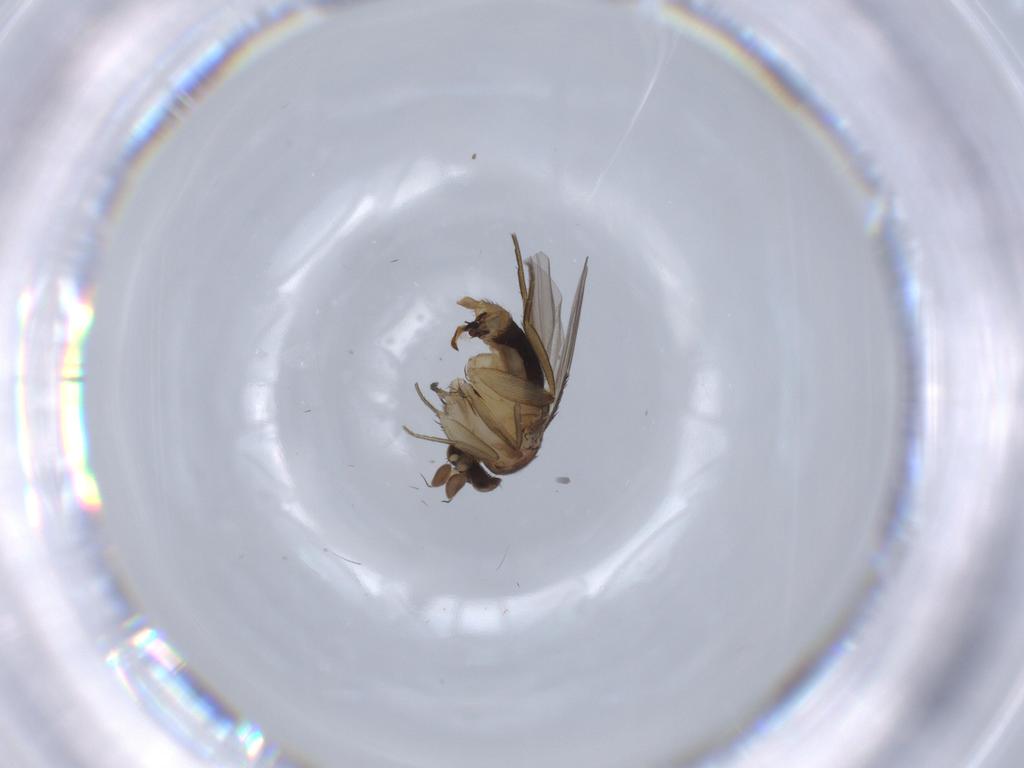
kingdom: Animalia
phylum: Arthropoda
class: Insecta
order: Diptera
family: Phoridae
